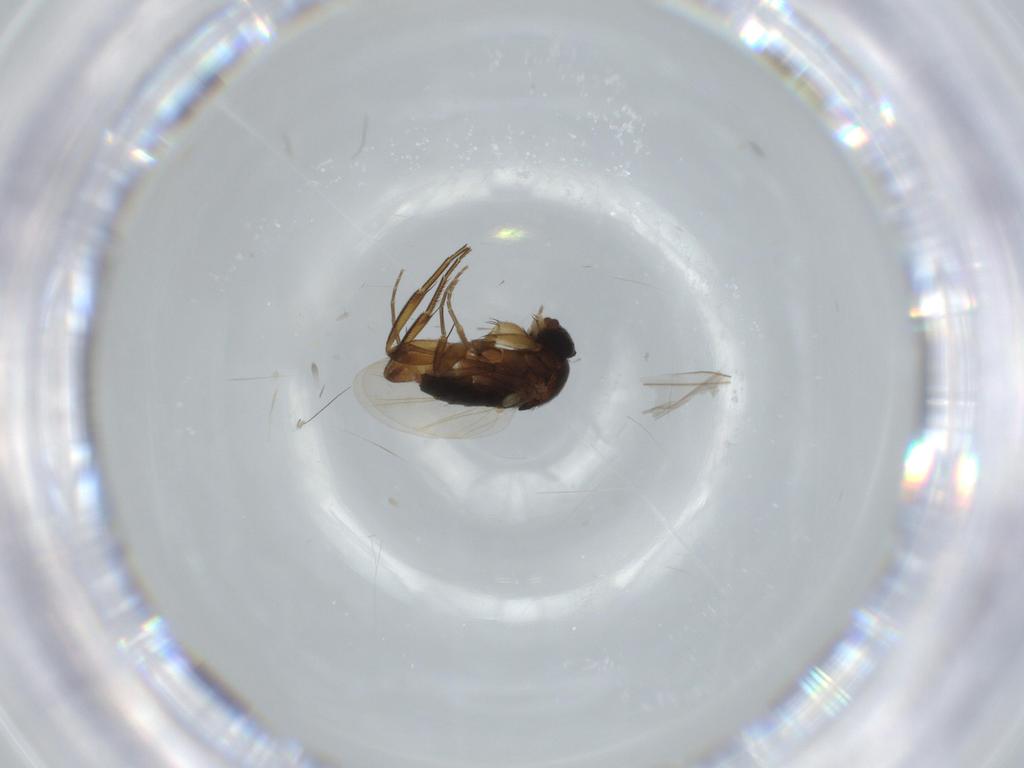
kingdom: Animalia
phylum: Arthropoda
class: Insecta
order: Diptera
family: Phoridae
